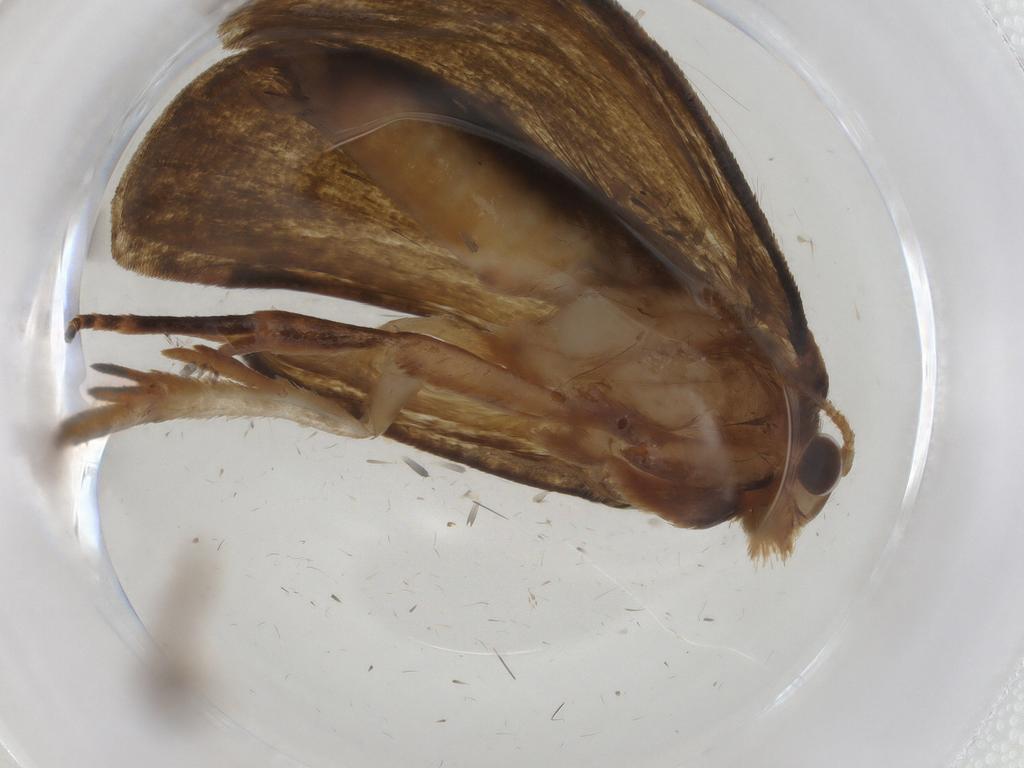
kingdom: Animalia
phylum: Arthropoda
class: Insecta
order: Lepidoptera
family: Geometridae
